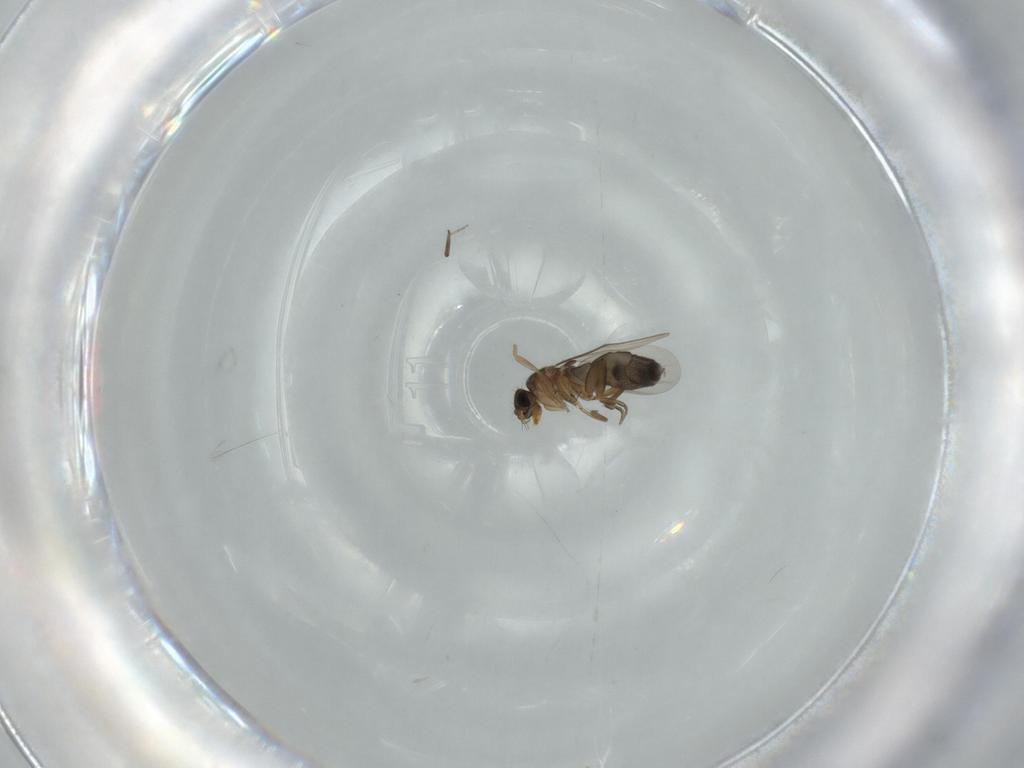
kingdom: Animalia
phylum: Arthropoda
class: Insecta
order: Diptera
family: Phoridae
